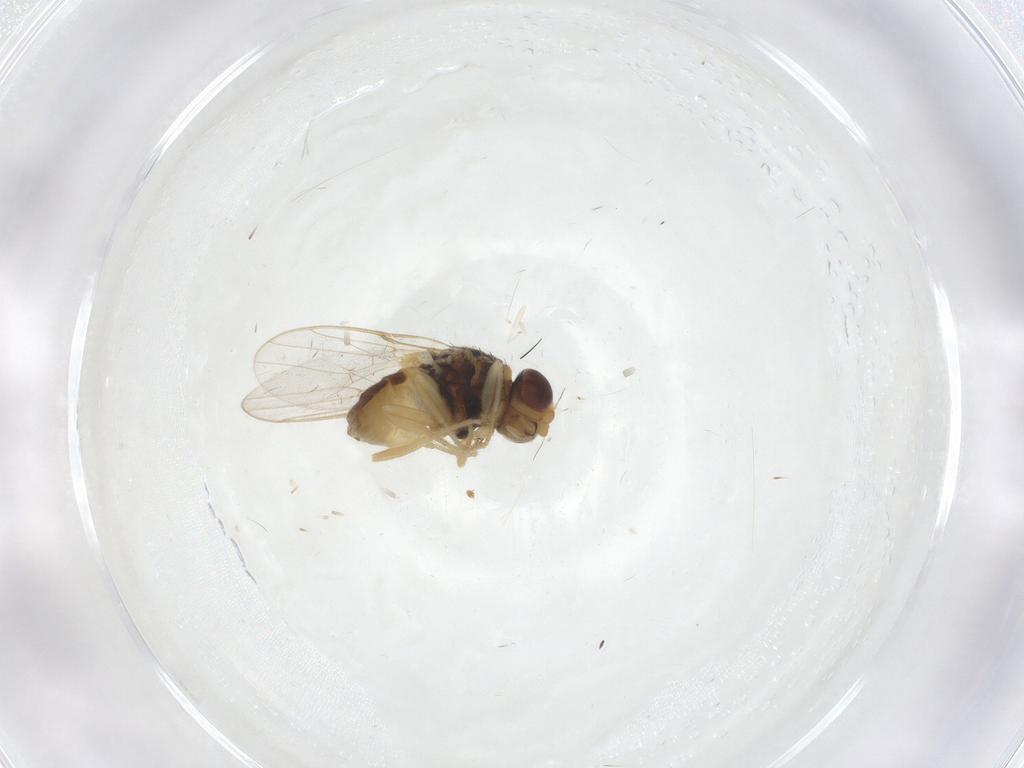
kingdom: Animalia
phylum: Arthropoda
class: Insecta
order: Diptera
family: Chloropidae
